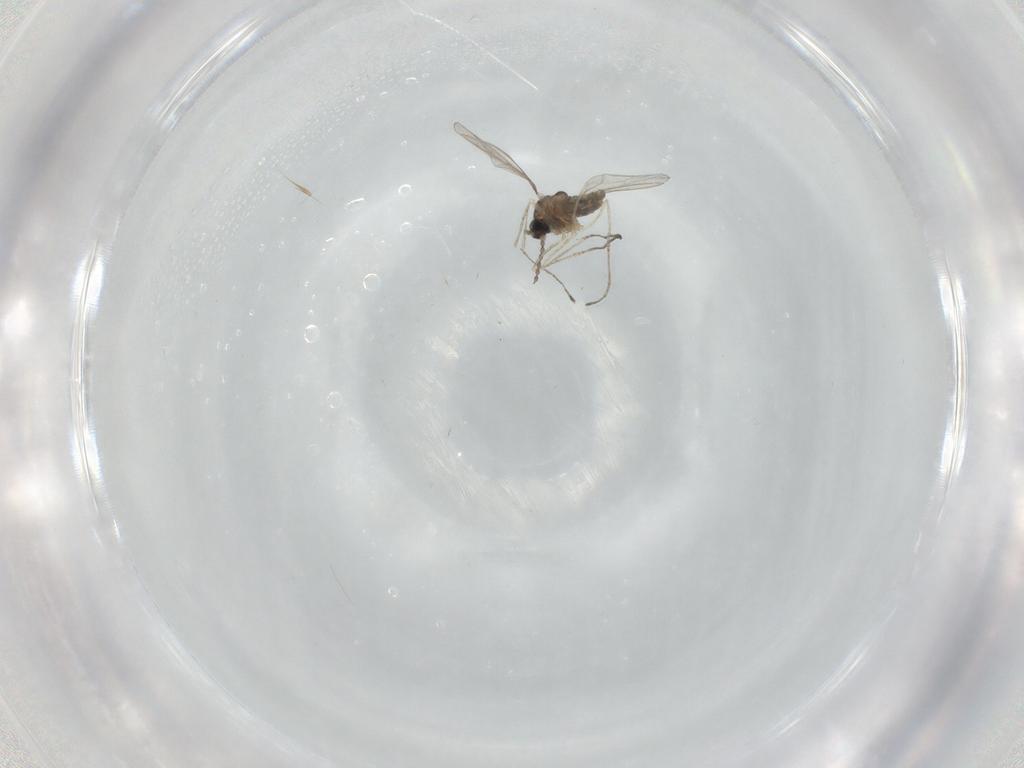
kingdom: Animalia
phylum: Arthropoda
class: Insecta
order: Diptera
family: Cecidomyiidae
